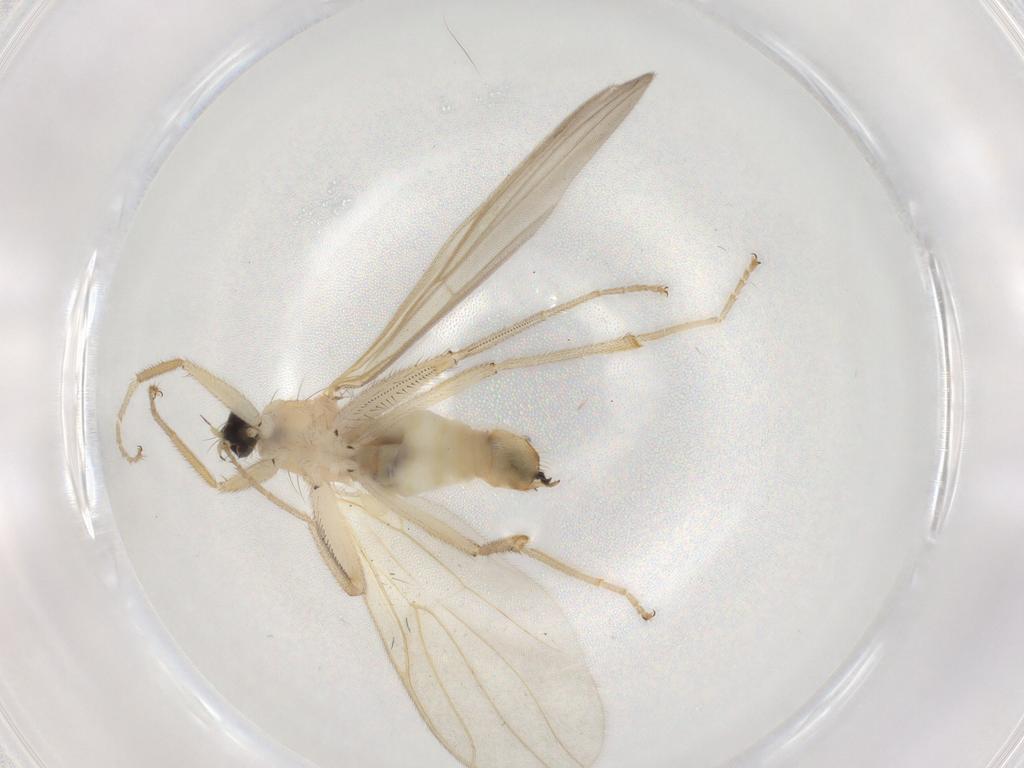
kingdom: Animalia
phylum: Arthropoda
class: Insecta
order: Diptera
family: Hybotidae
